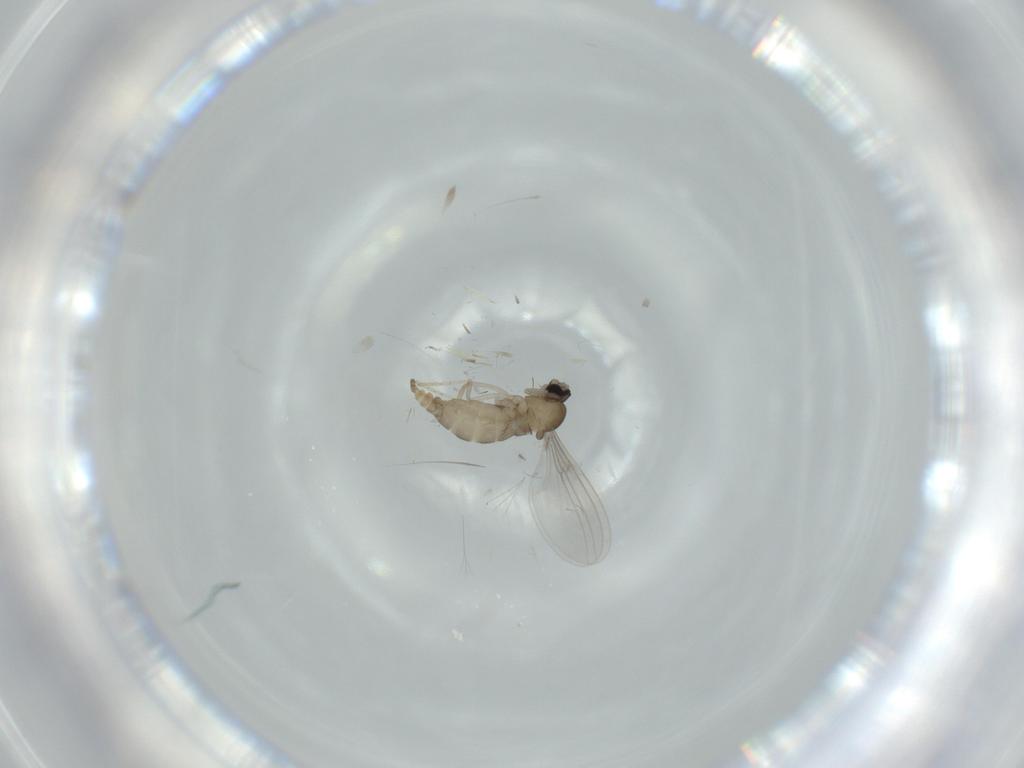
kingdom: Animalia
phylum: Arthropoda
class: Insecta
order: Diptera
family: Cecidomyiidae
